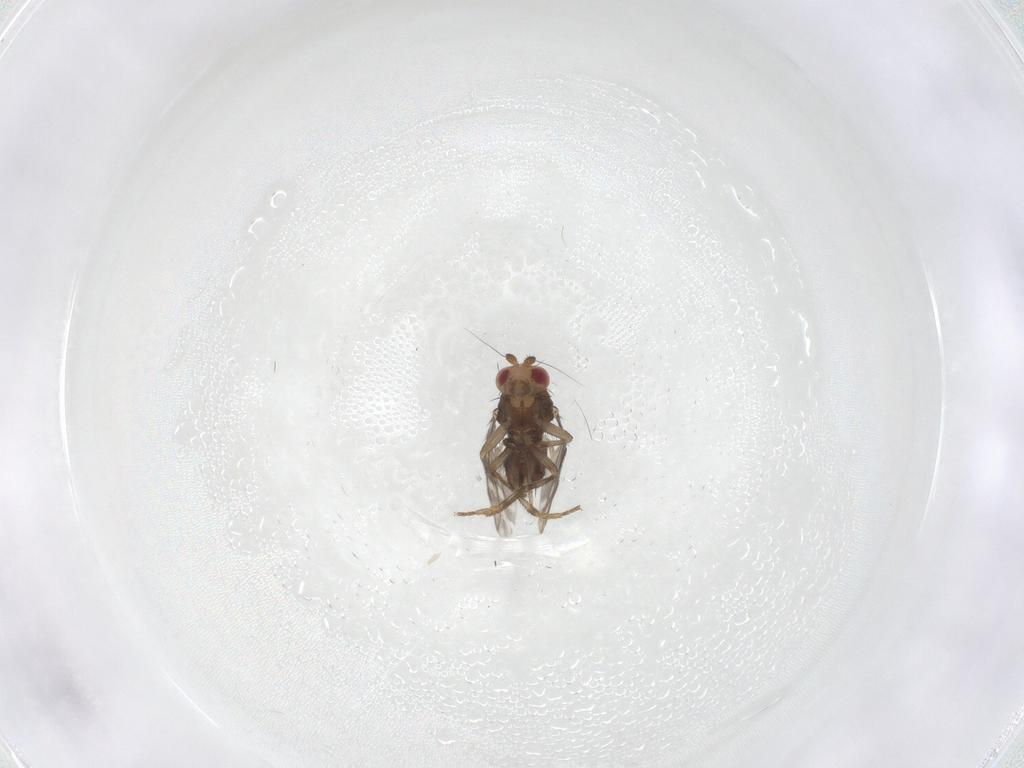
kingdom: Animalia
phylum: Arthropoda
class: Insecta
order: Diptera
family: Sphaeroceridae
